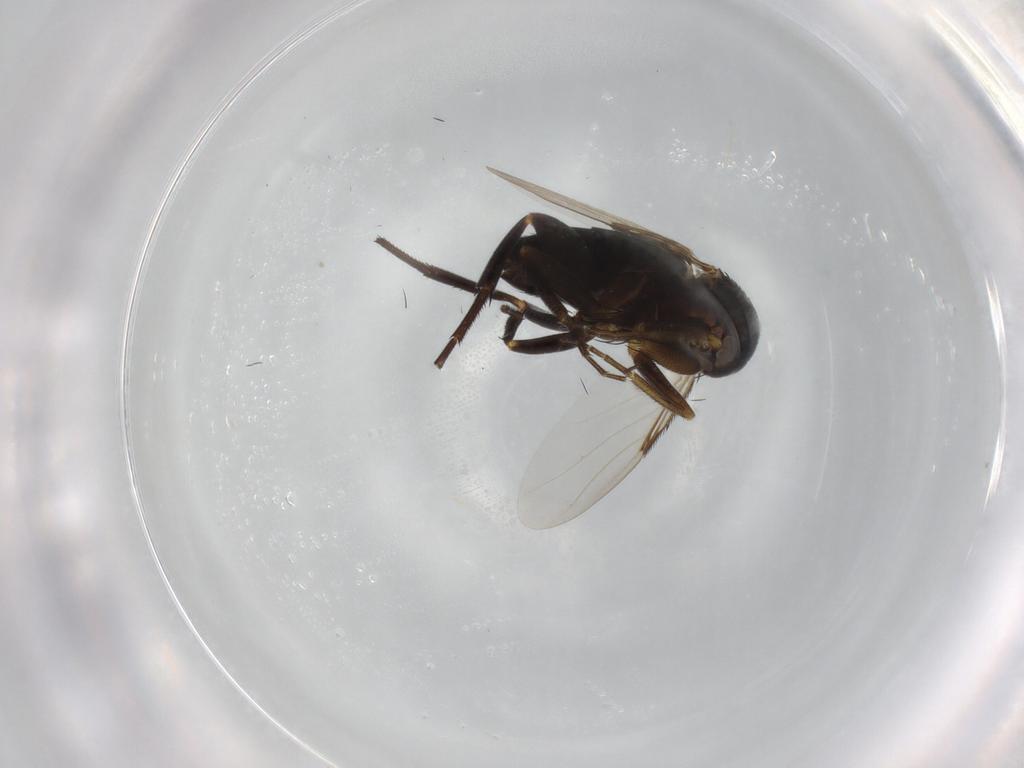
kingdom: Animalia
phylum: Arthropoda
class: Insecta
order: Diptera
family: Phoridae
